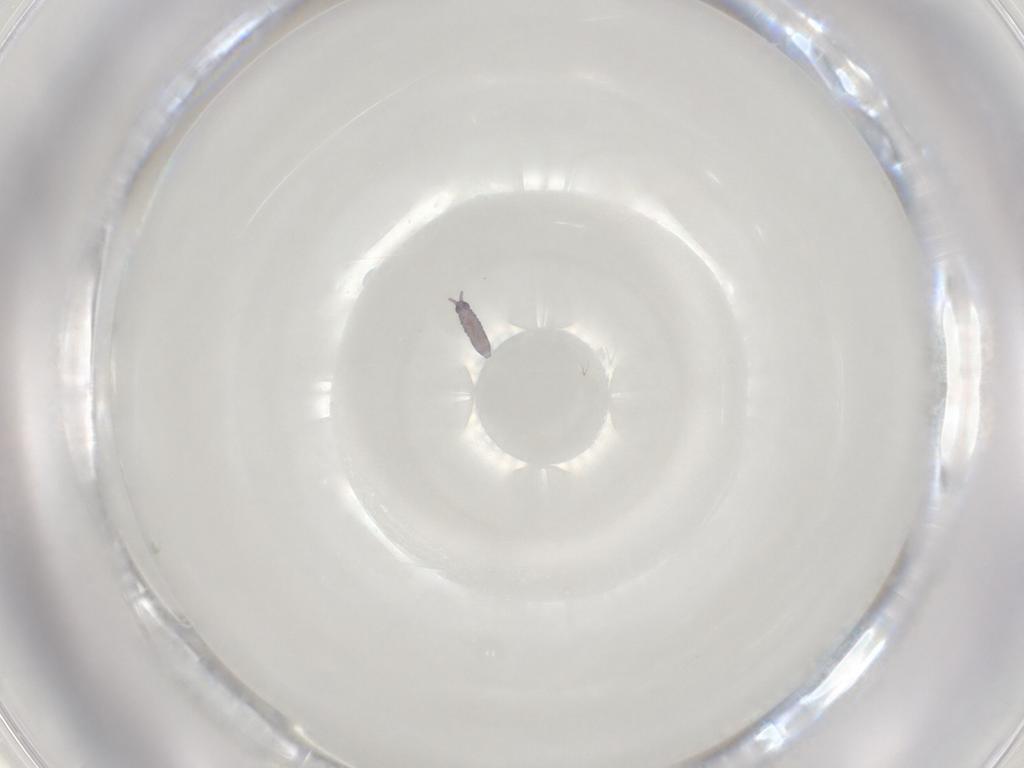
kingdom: Animalia
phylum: Arthropoda
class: Collembola
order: Poduromorpha
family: Neanuridae
